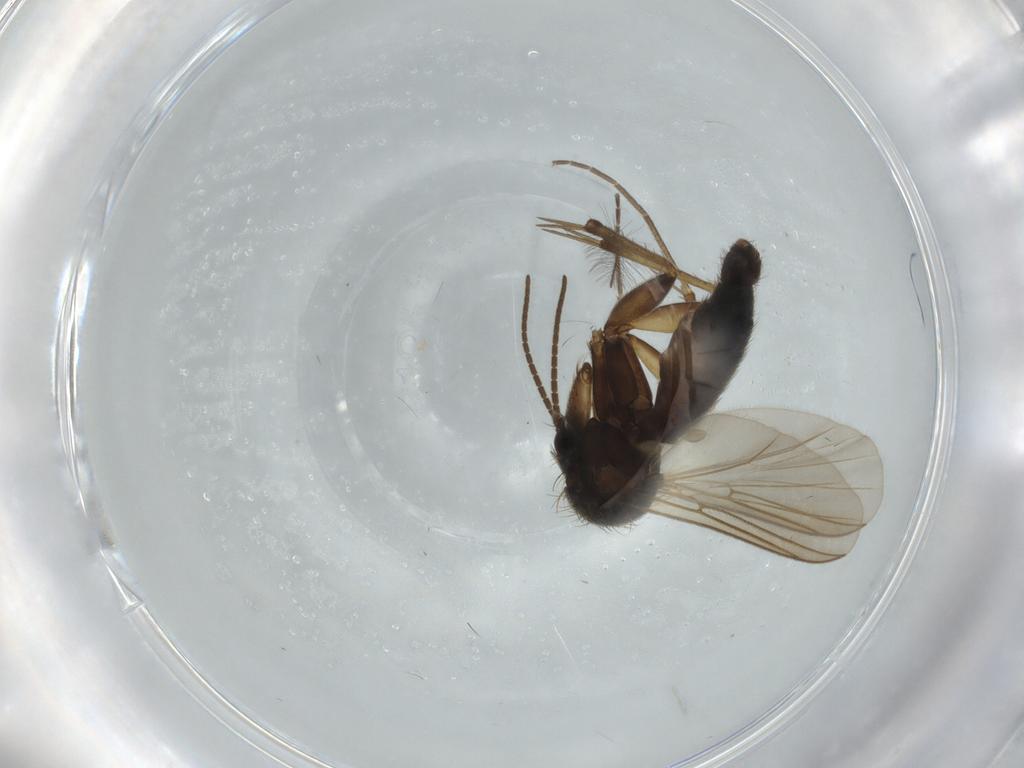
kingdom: Animalia
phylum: Arthropoda
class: Insecta
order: Diptera
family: Mycetophilidae
